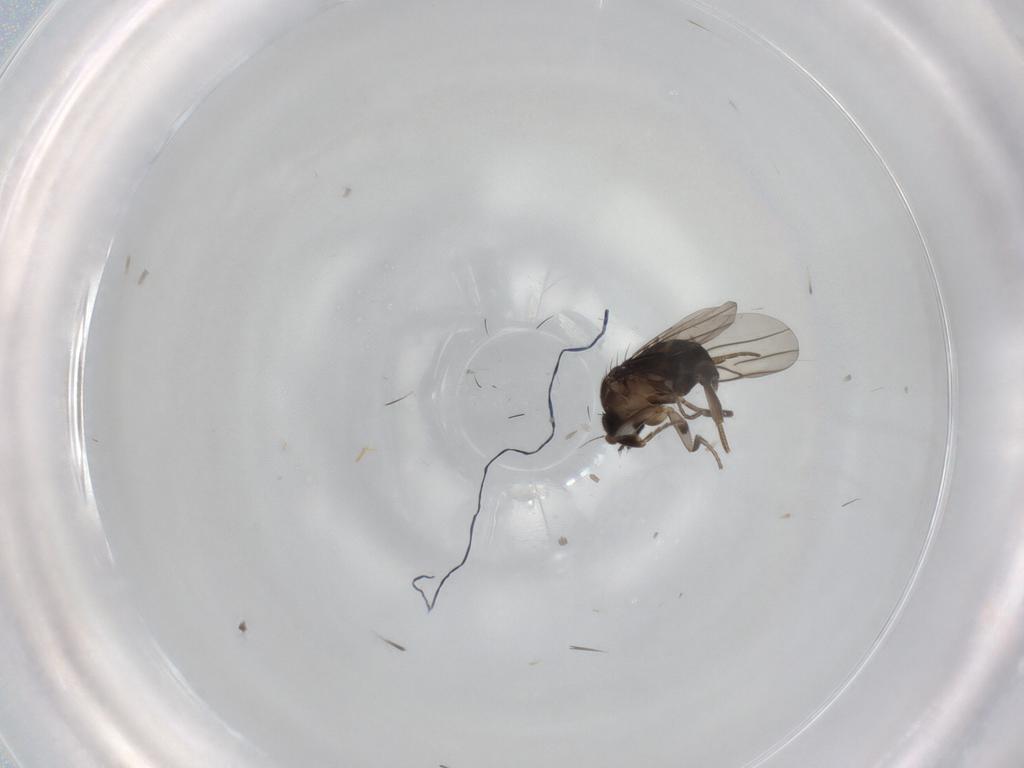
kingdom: Animalia
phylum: Arthropoda
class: Insecta
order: Diptera
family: Phoridae
